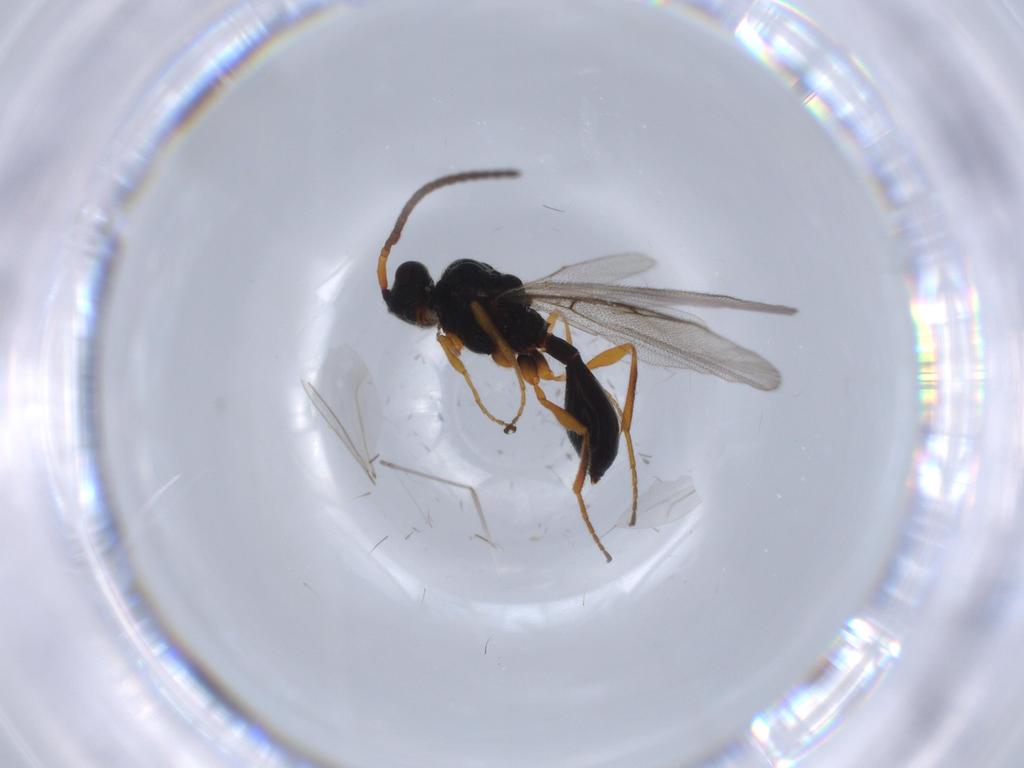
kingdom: Animalia
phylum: Arthropoda
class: Insecta
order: Hymenoptera
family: Diapriidae
